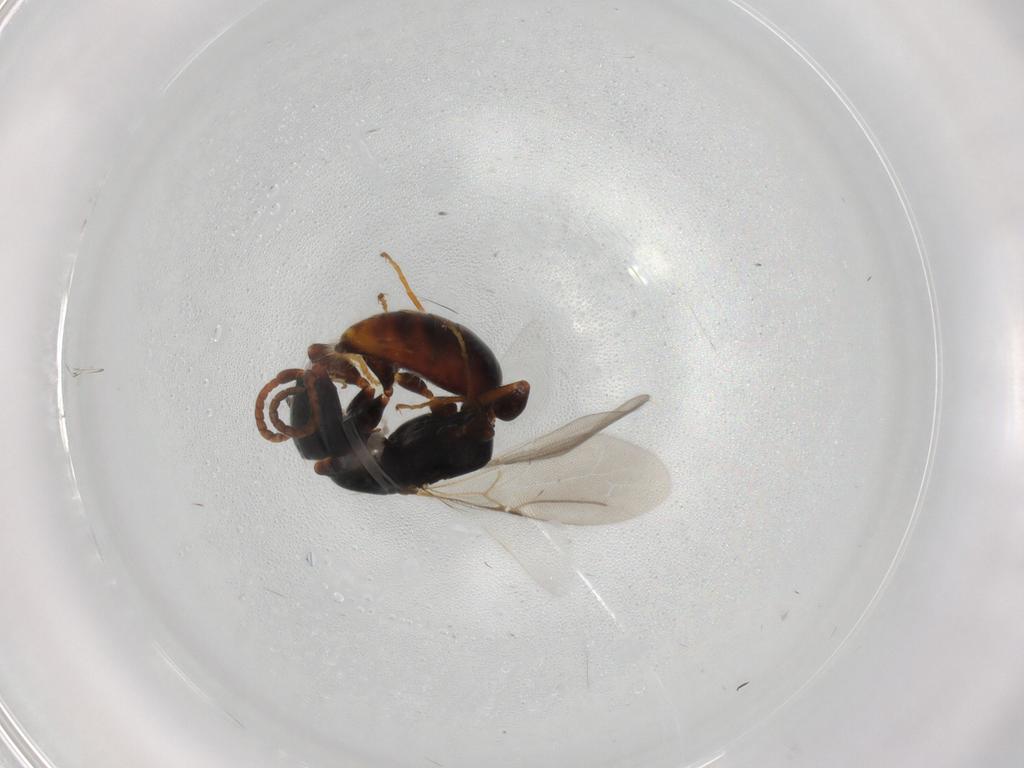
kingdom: Animalia
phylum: Arthropoda
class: Insecta
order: Hymenoptera
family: Bethylidae
